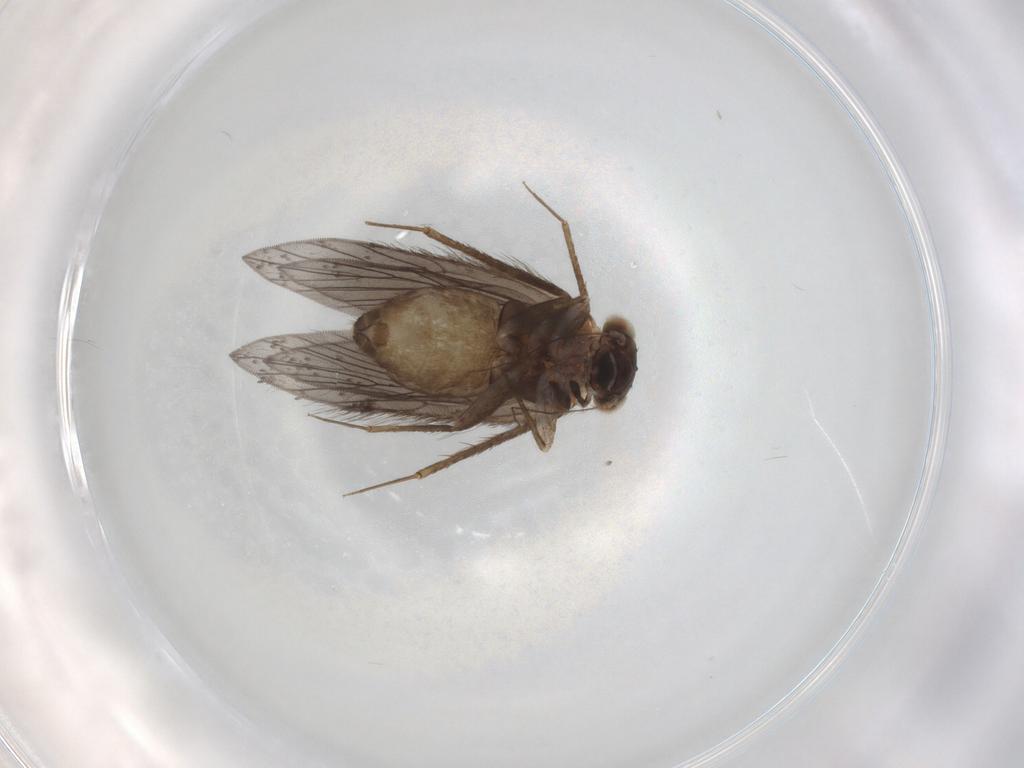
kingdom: Animalia
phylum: Arthropoda
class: Insecta
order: Psocodea
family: Lepidopsocidae
